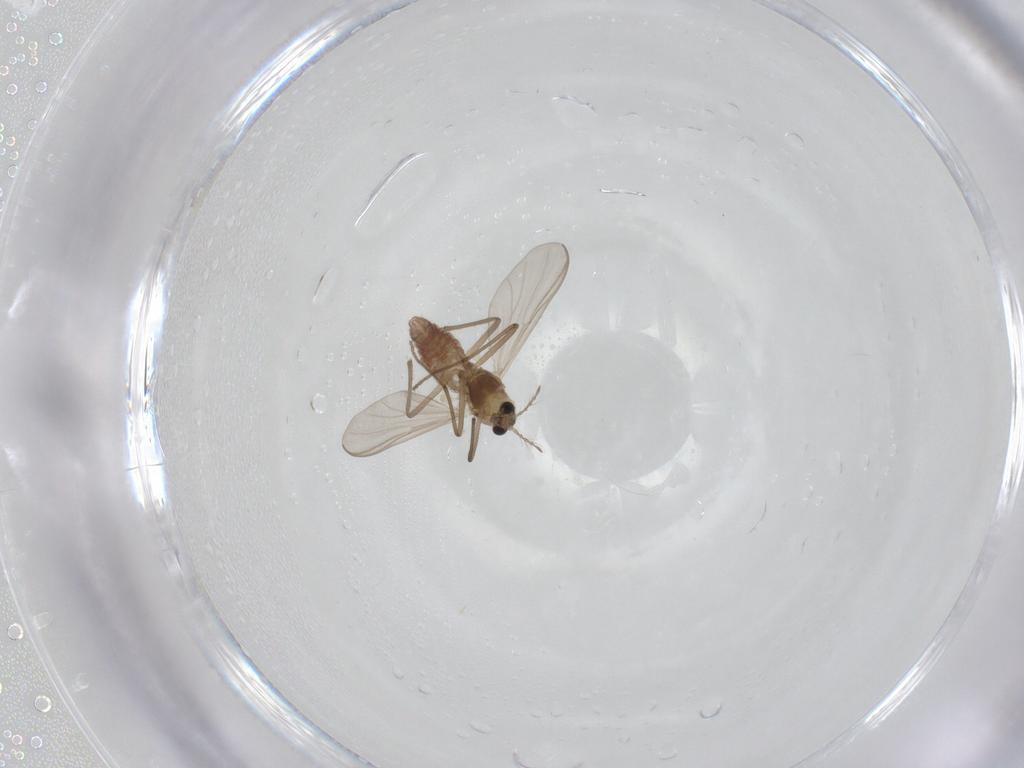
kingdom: Animalia
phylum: Arthropoda
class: Insecta
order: Diptera
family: Chironomidae
